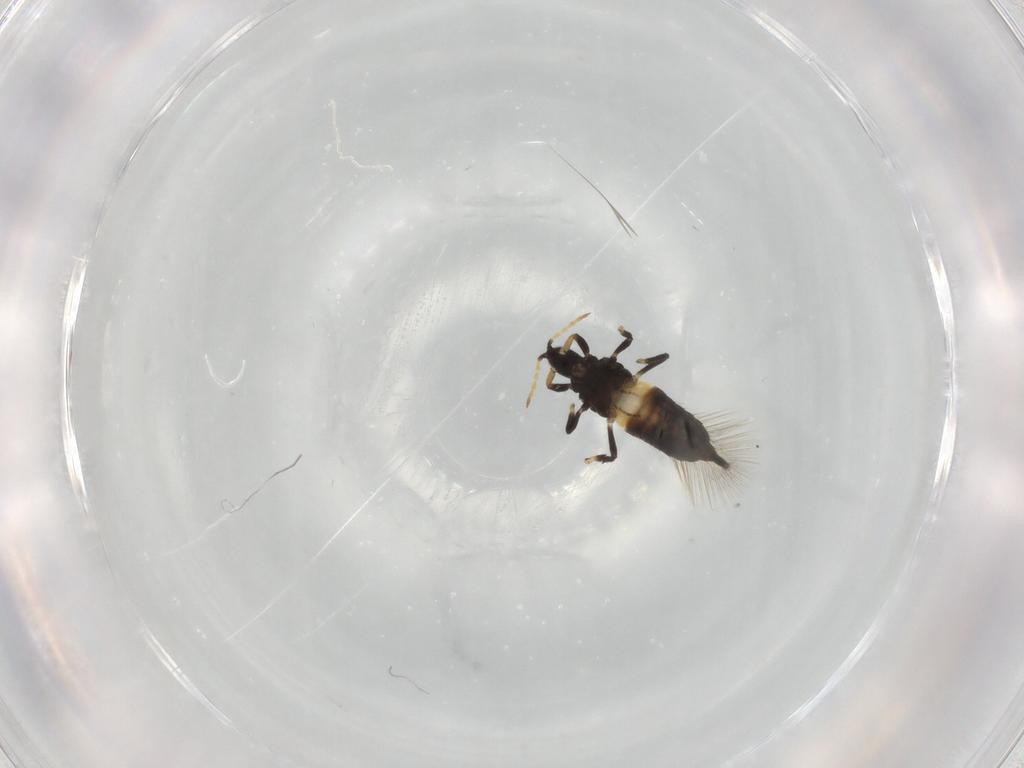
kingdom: Animalia
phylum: Arthropoda
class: Insecta
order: Thysanoptera
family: Phlaeothripidae
